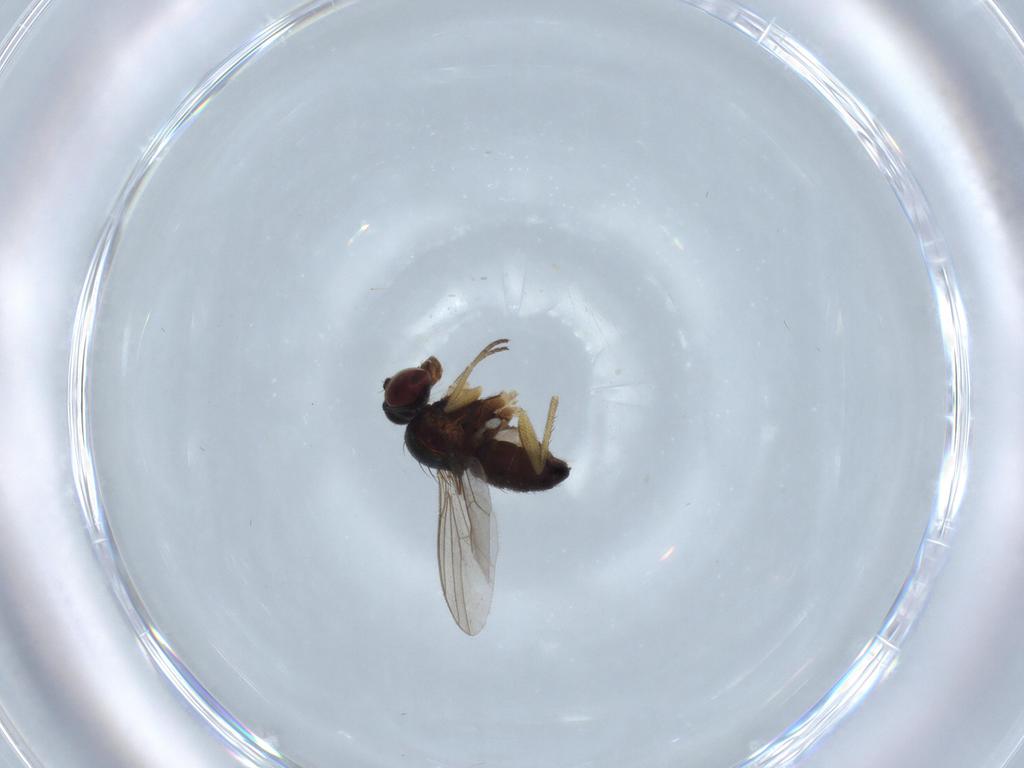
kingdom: Animalia
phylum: Arthropoda
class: Insecta
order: Diptera
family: Dolichopodidae
